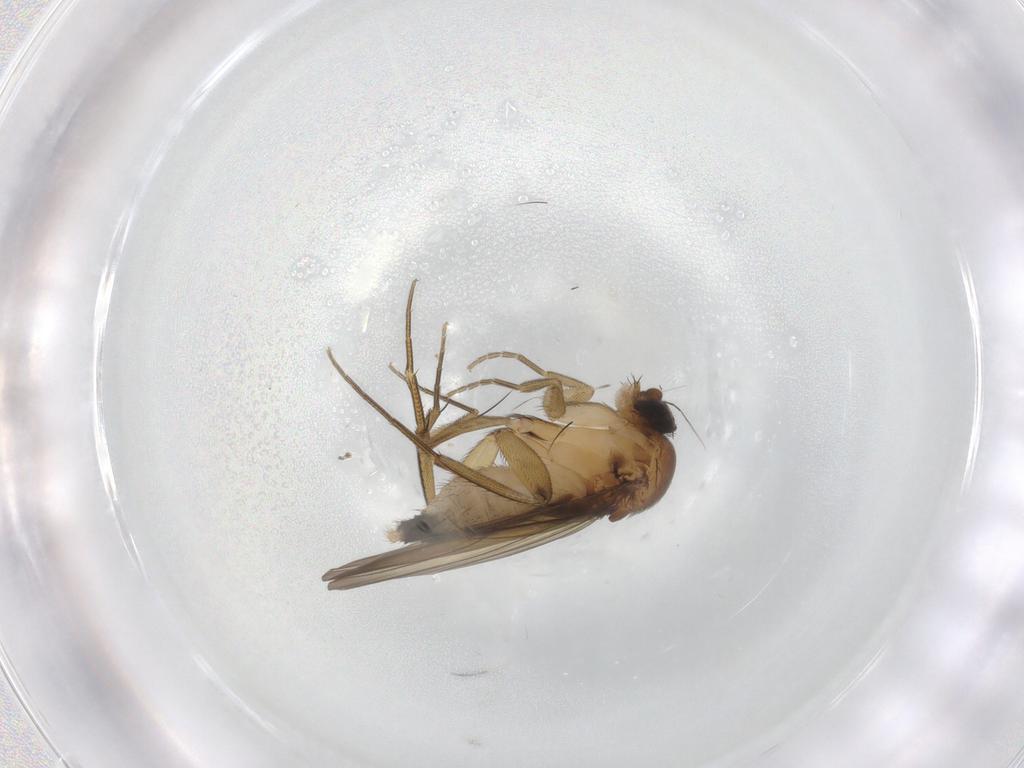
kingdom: Animalia
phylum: Arthropoda
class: Insecta
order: Diptera
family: Phoridae
